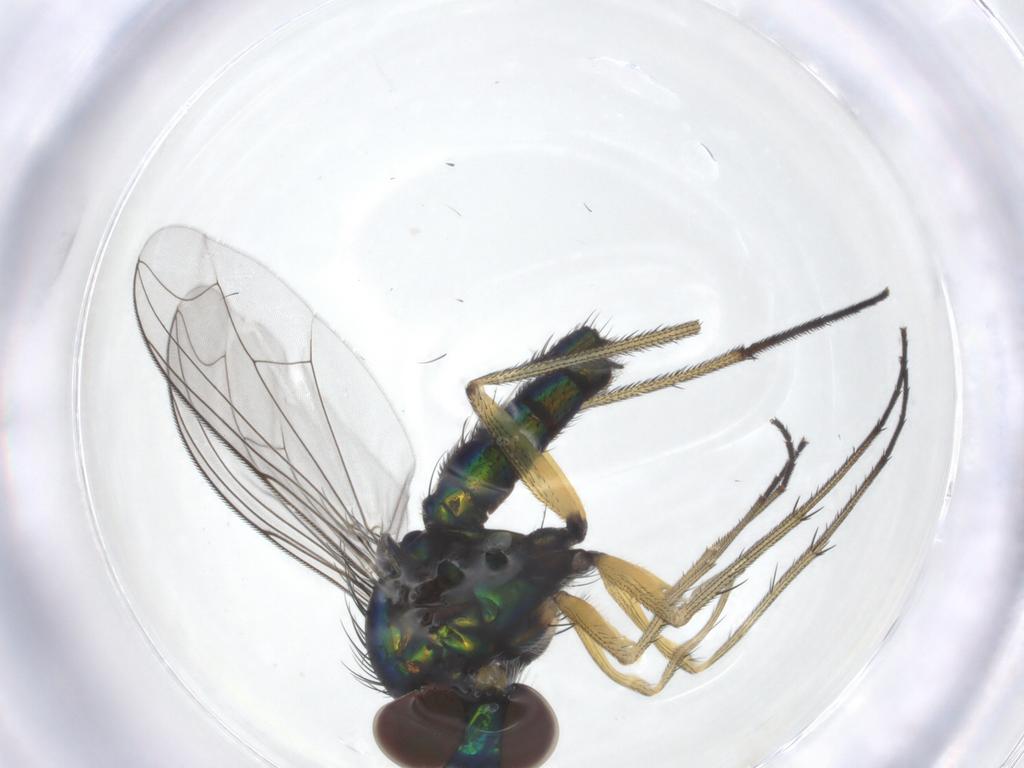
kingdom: Animalia
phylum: Arthropoda
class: Insecta
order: Diptera
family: Dolichopodidae
